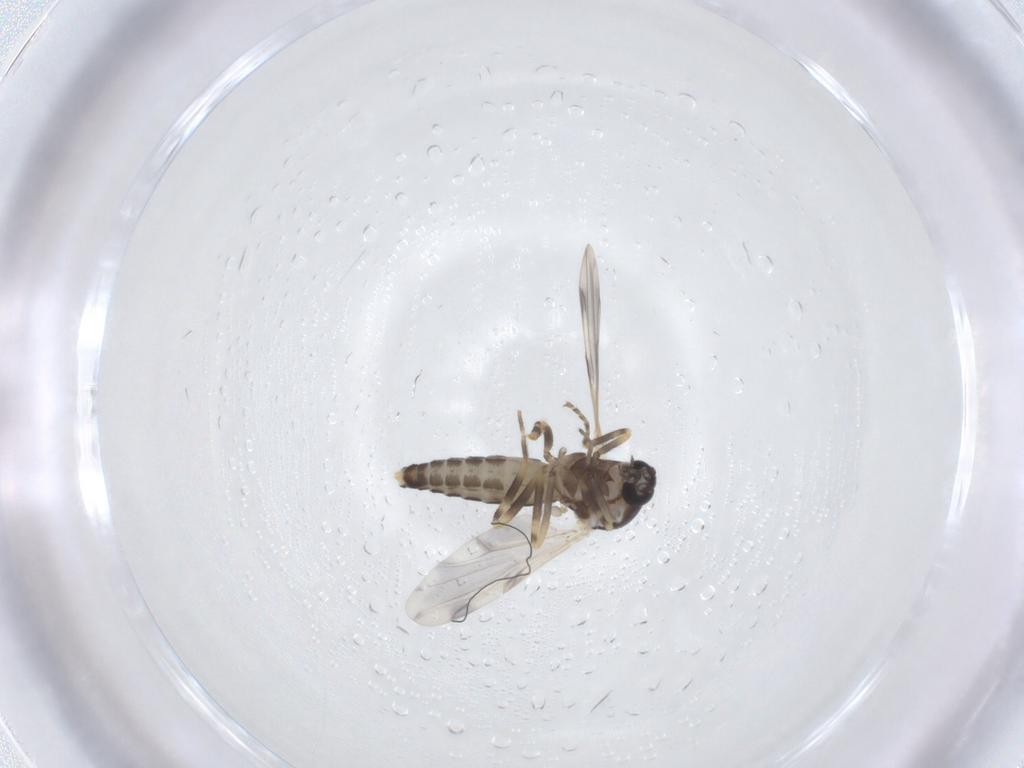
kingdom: Animalia
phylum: Arthropoda
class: Insecta
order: Diptera
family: Ceratopogonidae
